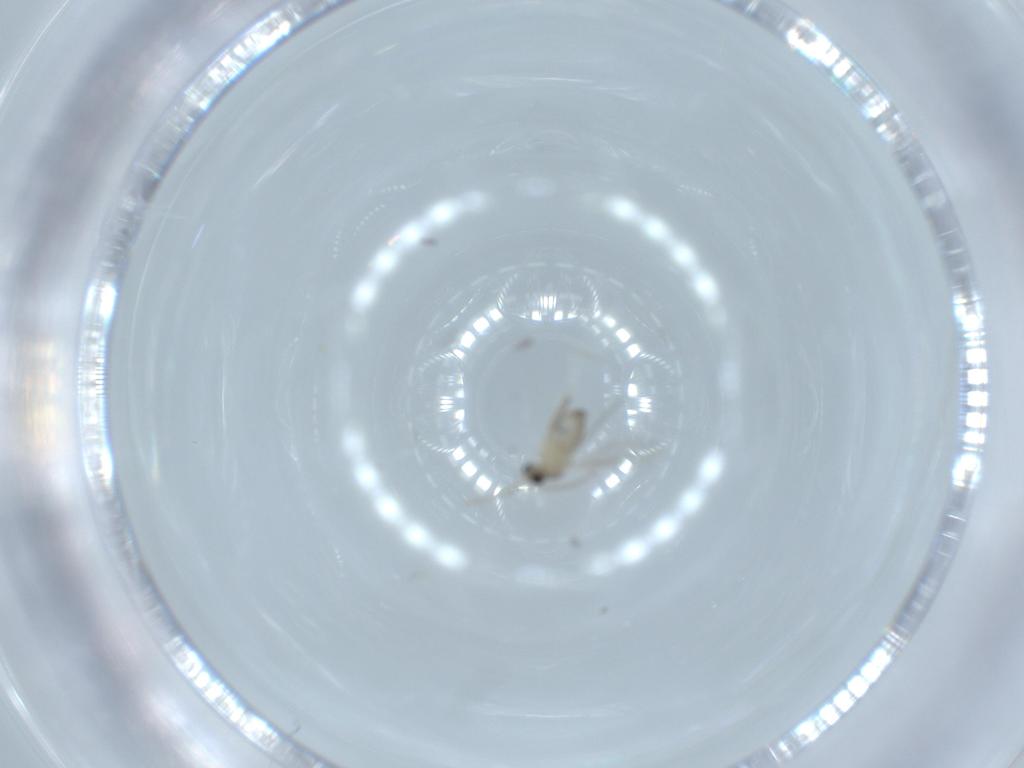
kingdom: Animalia
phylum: Arthropoda
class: Insecta
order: Diptera
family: Cecidomyiidae
